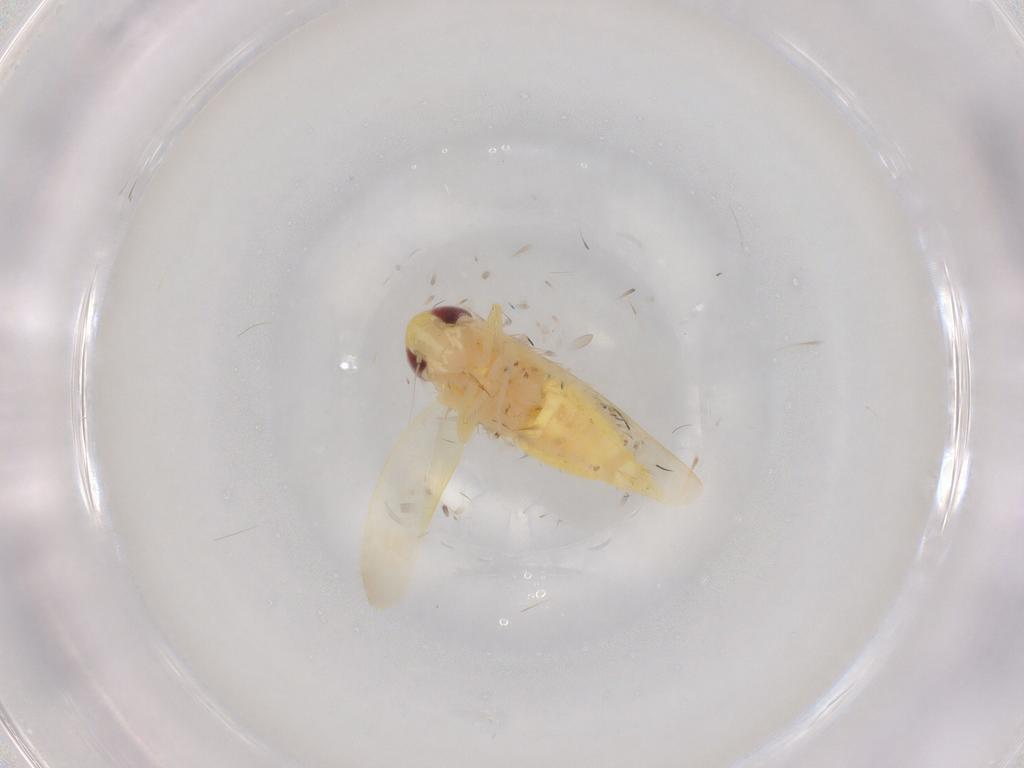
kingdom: Animalia
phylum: Arthropoda
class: Insecta
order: Hemiptera
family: Cicadellidae
